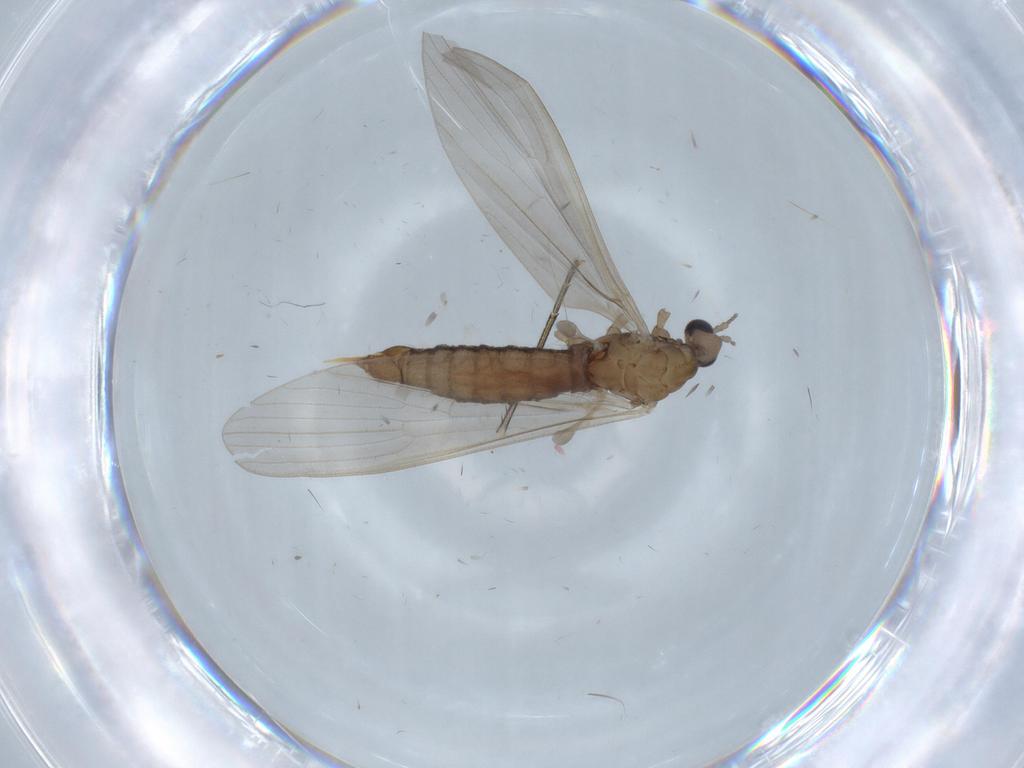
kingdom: Animalia
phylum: Arthropoda
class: Insecta
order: Diptera
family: Limoniidae
